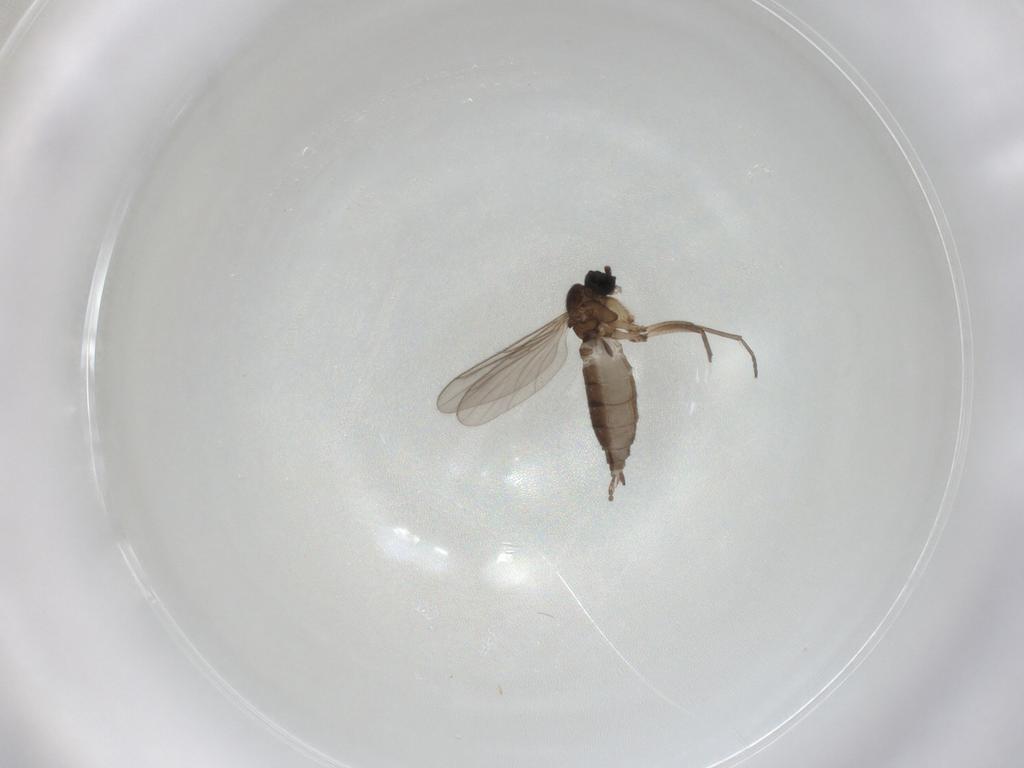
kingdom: Animalia
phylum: Arthropoda
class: Insecta
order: Diptera
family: Sciaridae
